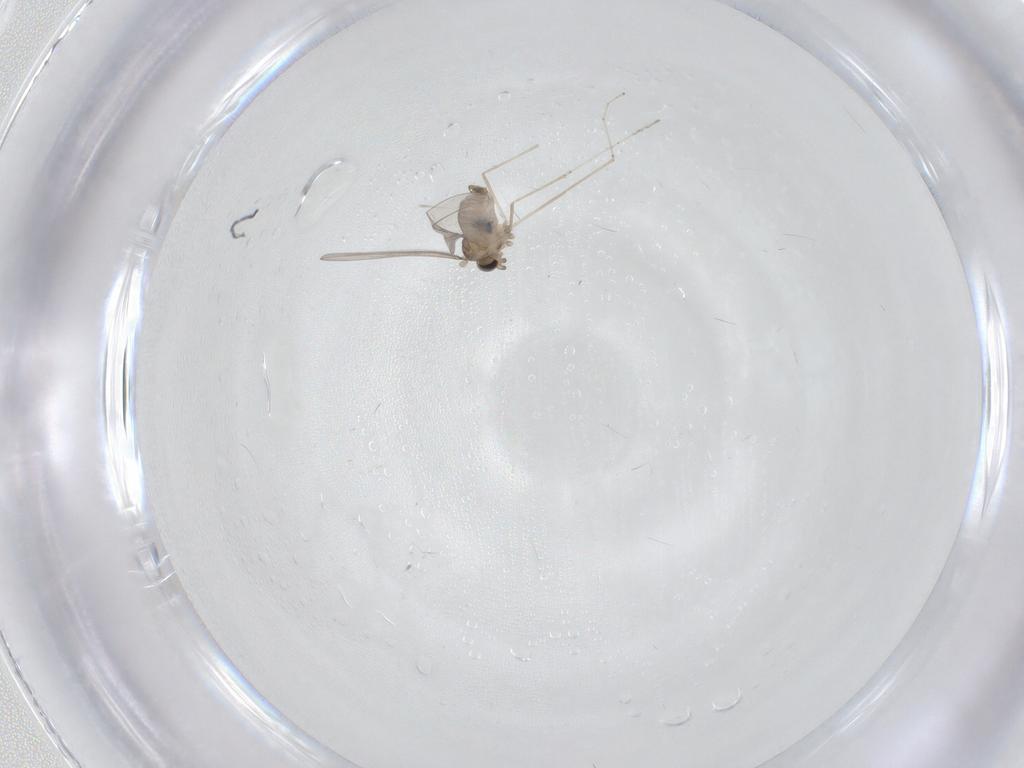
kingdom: Animalia
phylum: Arthropoda
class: Insecta
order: Diptera
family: Cecidomyiidae
